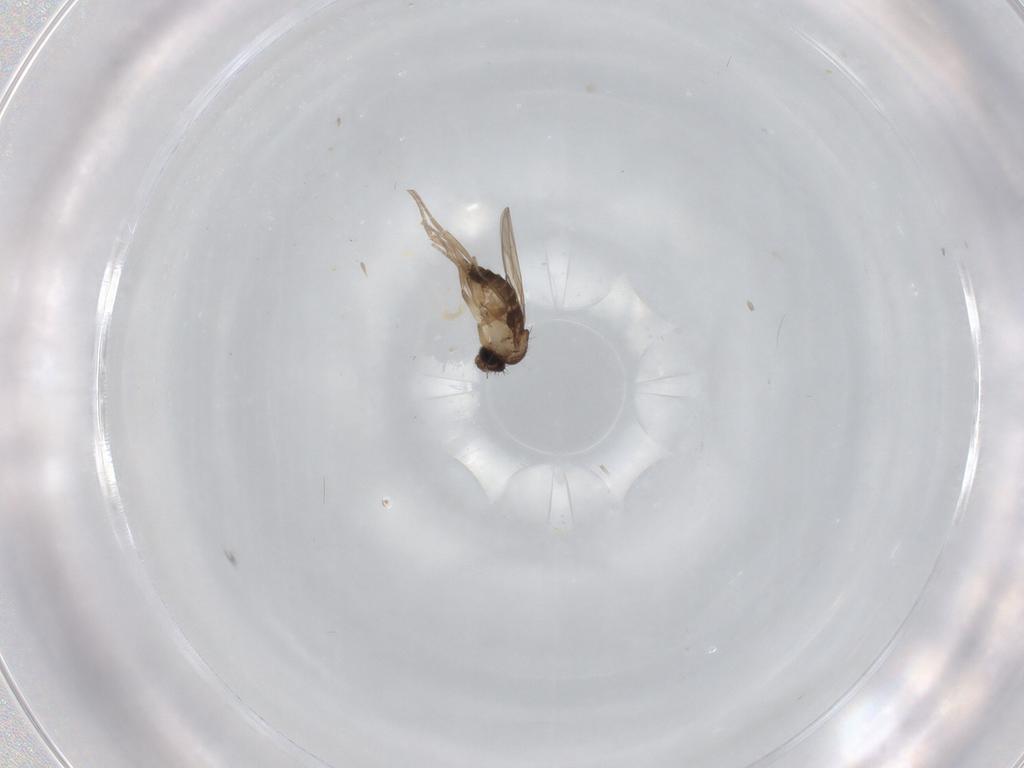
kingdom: Animalia
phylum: Arthropoda
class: Insecta
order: Diptera
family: Phoridae
